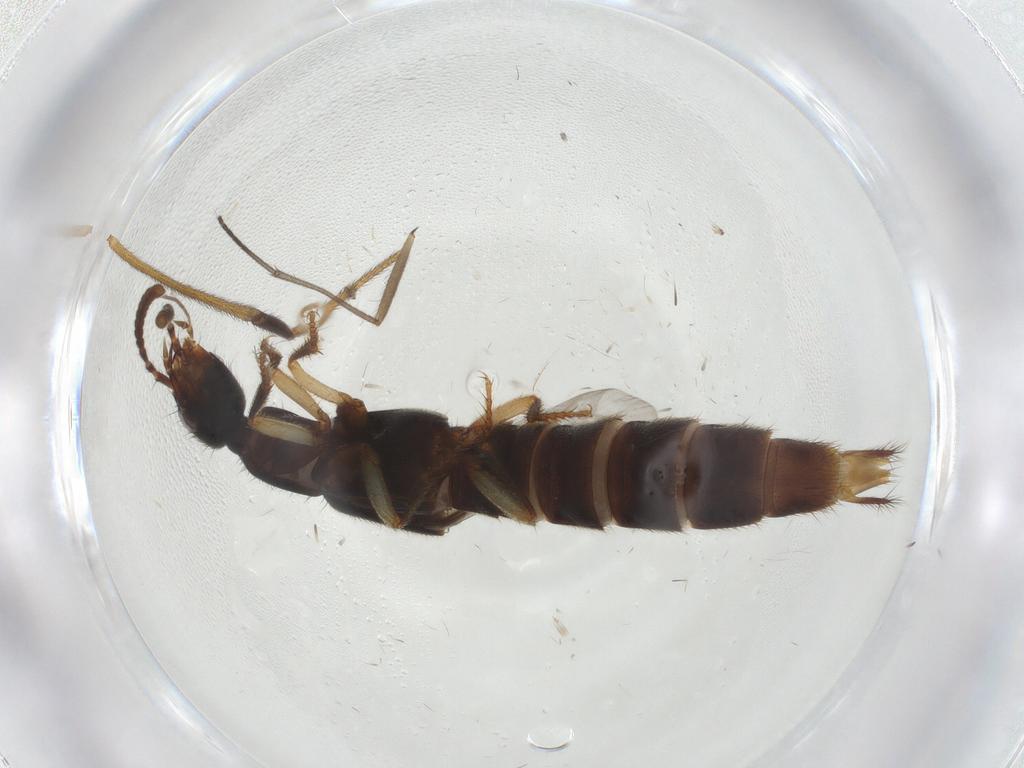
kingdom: Animalia
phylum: Arthropoda
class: Insecta
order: Coleoptera
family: Staphylinidae
